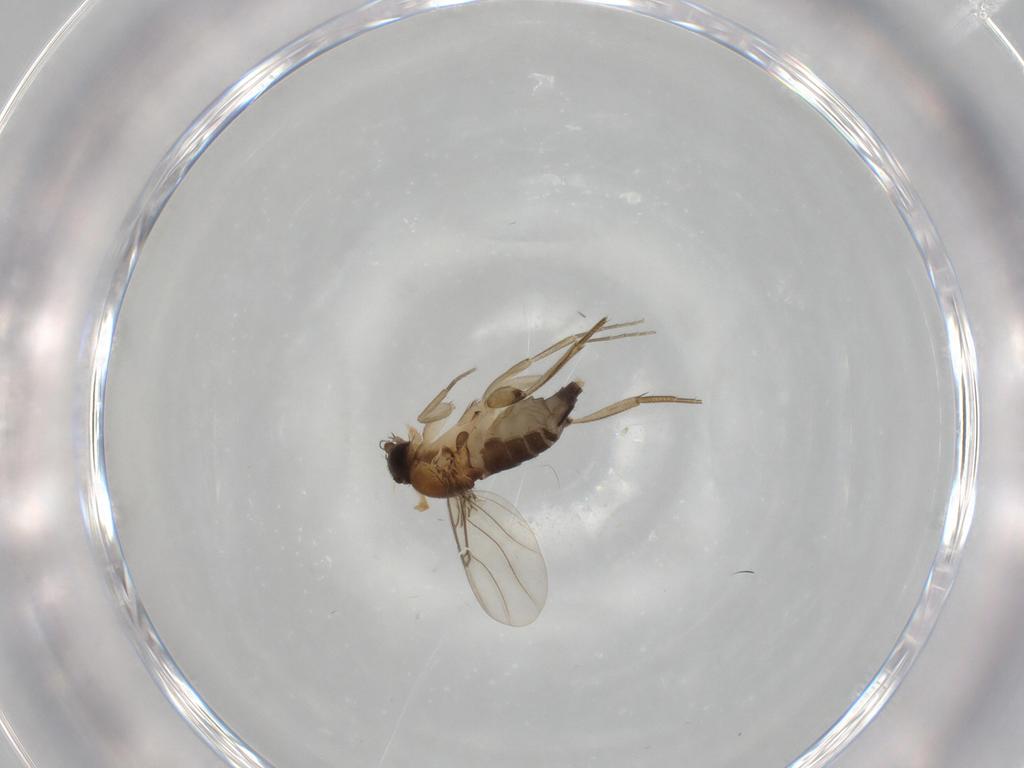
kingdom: Animalia
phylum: Arthropoda
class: Insecta
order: Diptera
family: Phoridae
